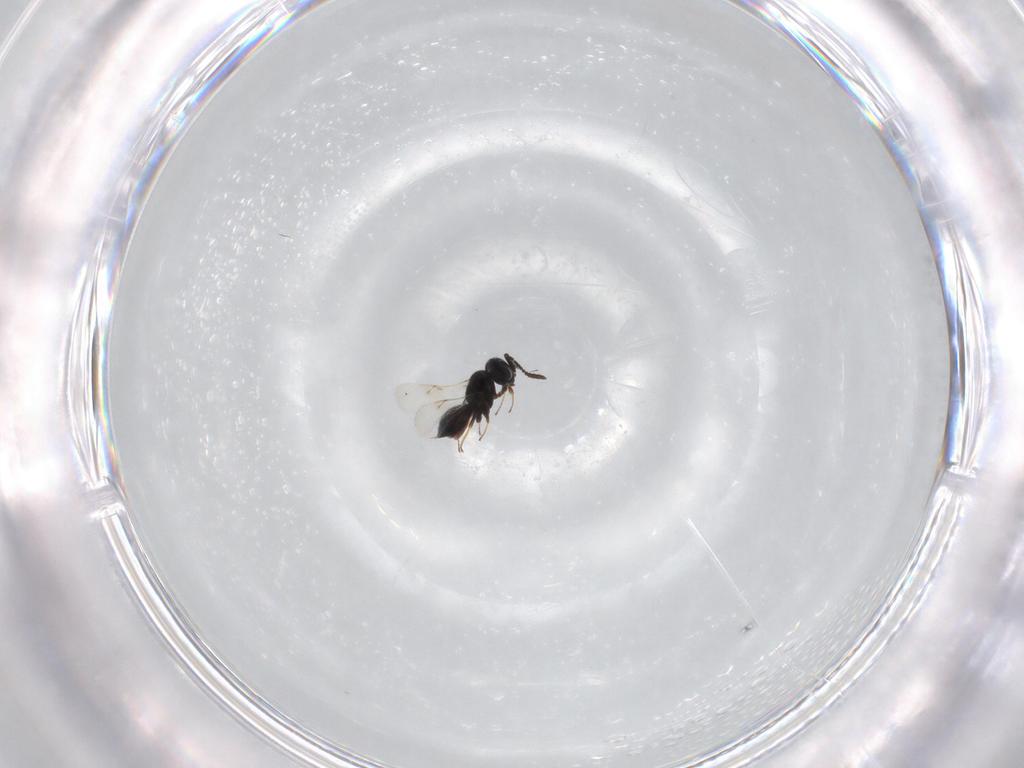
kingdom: Animalia
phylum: Arthropoda
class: Insecta
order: Hymenoptera
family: Scelionidae
